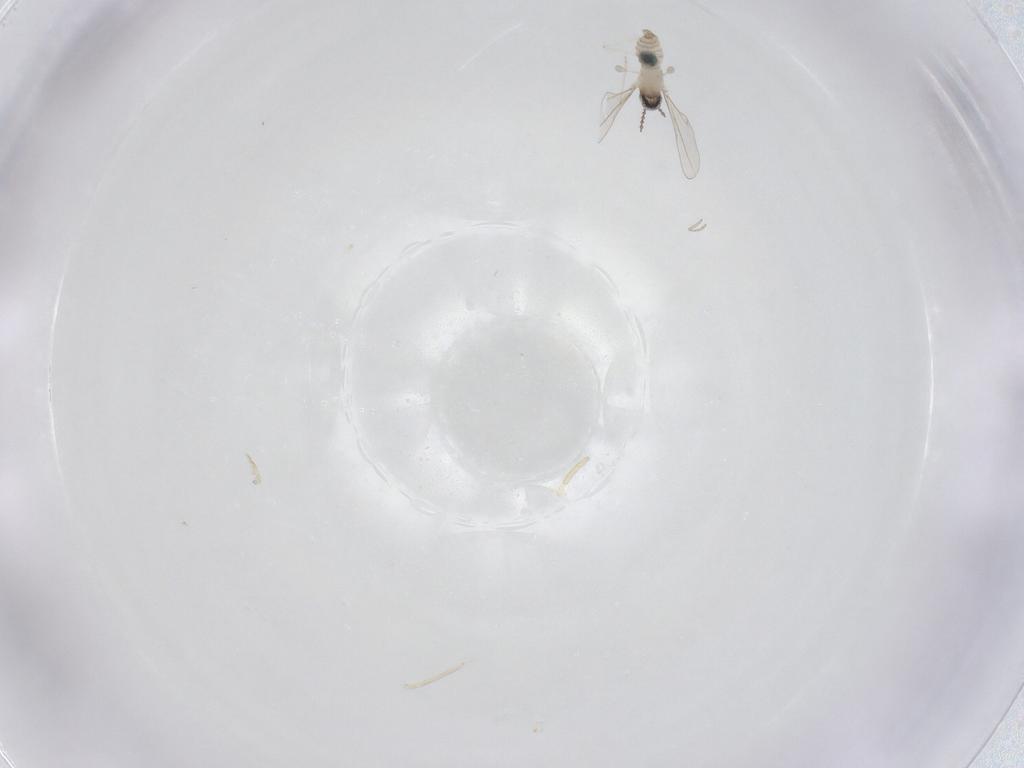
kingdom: Animalia
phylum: Arthropoda
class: Insecta
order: Diptera
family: Cecidomyiidae
